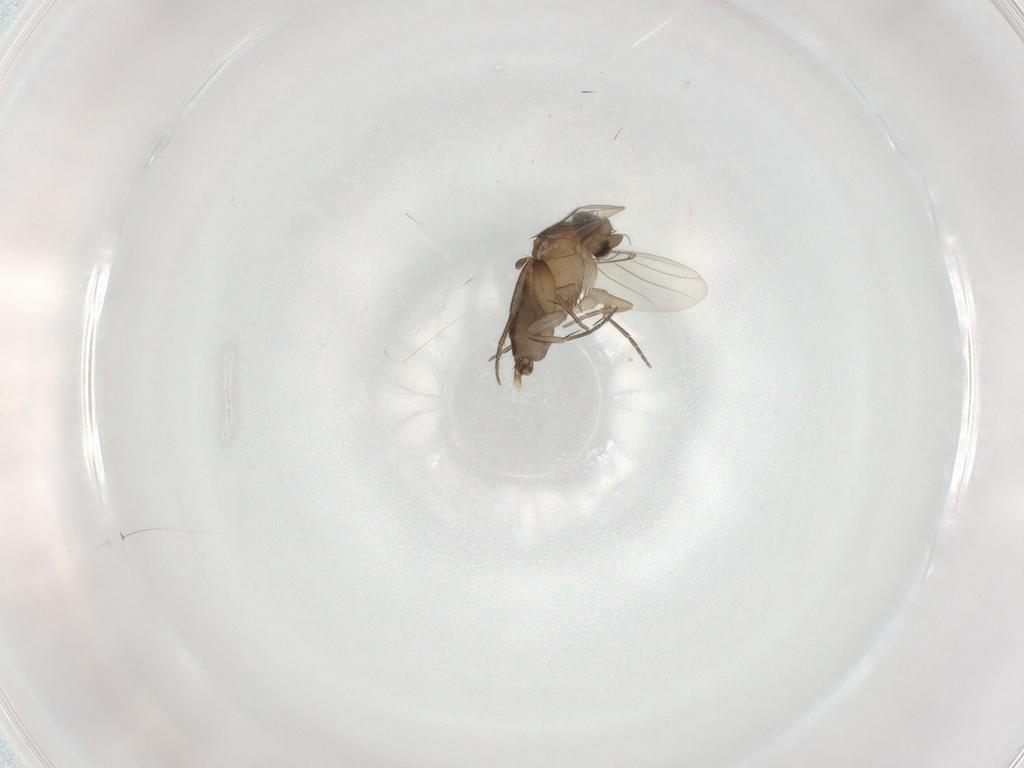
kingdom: Animalia
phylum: Arthropoda
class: Insecta
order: Diptera
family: Phoridae
